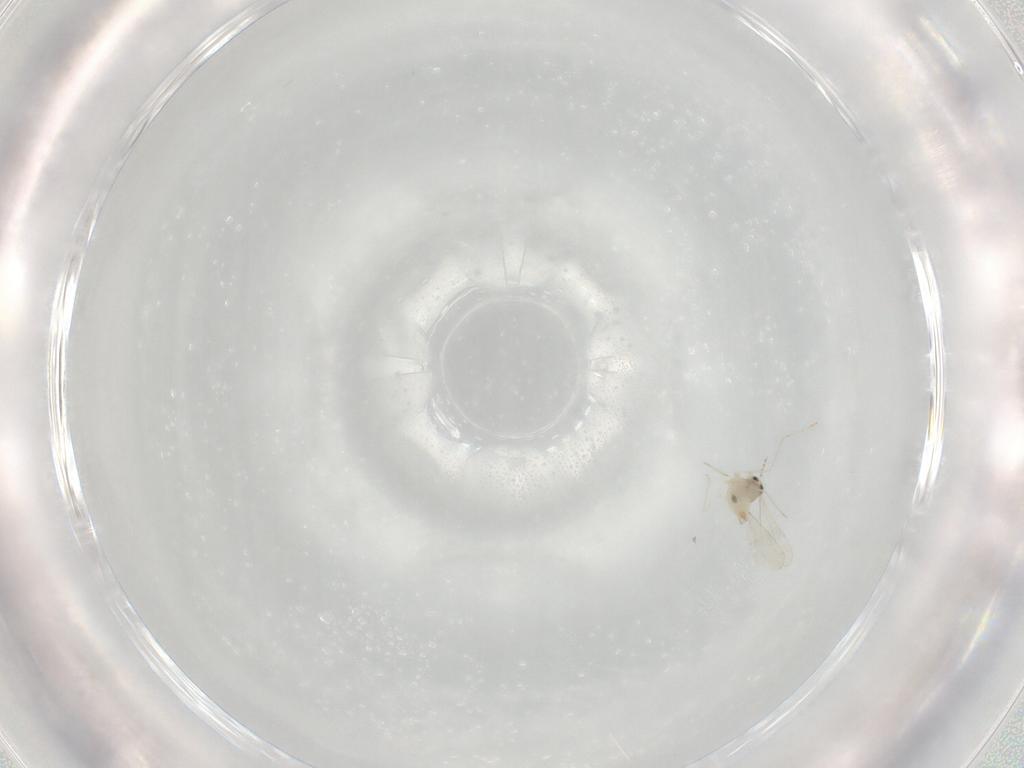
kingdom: Animalia
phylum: Arthropoda
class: Insecta
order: Diptera
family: Cecidomyiidae
